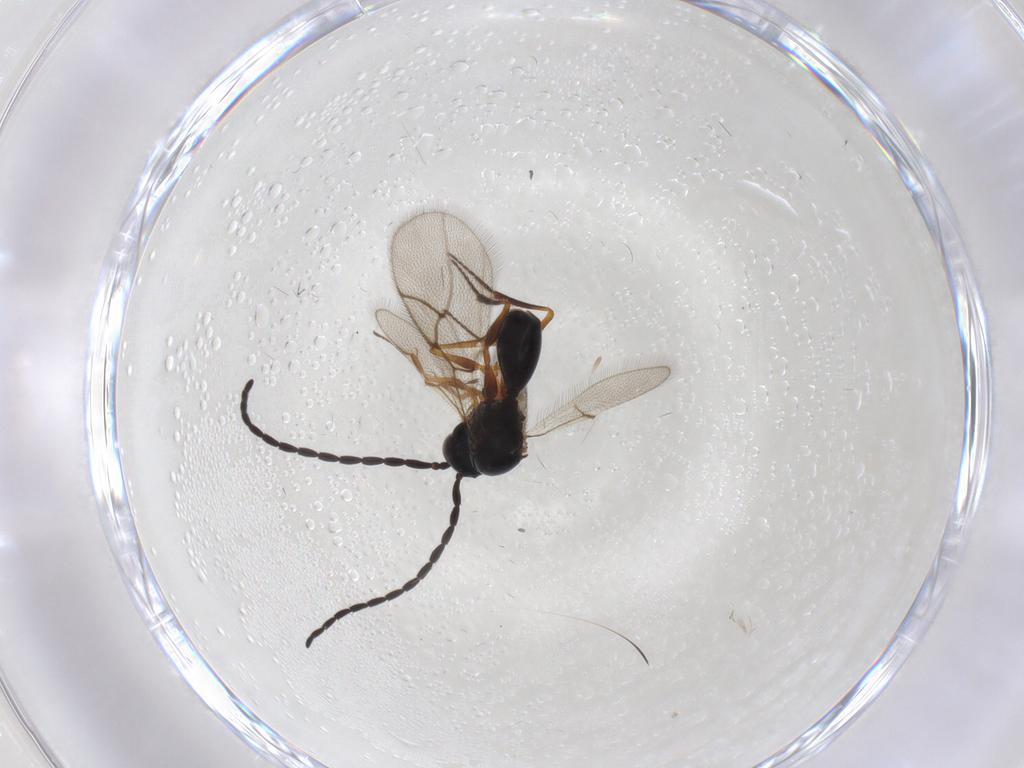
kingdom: Animalia
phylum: Arthropoda
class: Insecta
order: Hymenoptera
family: Figitidae
